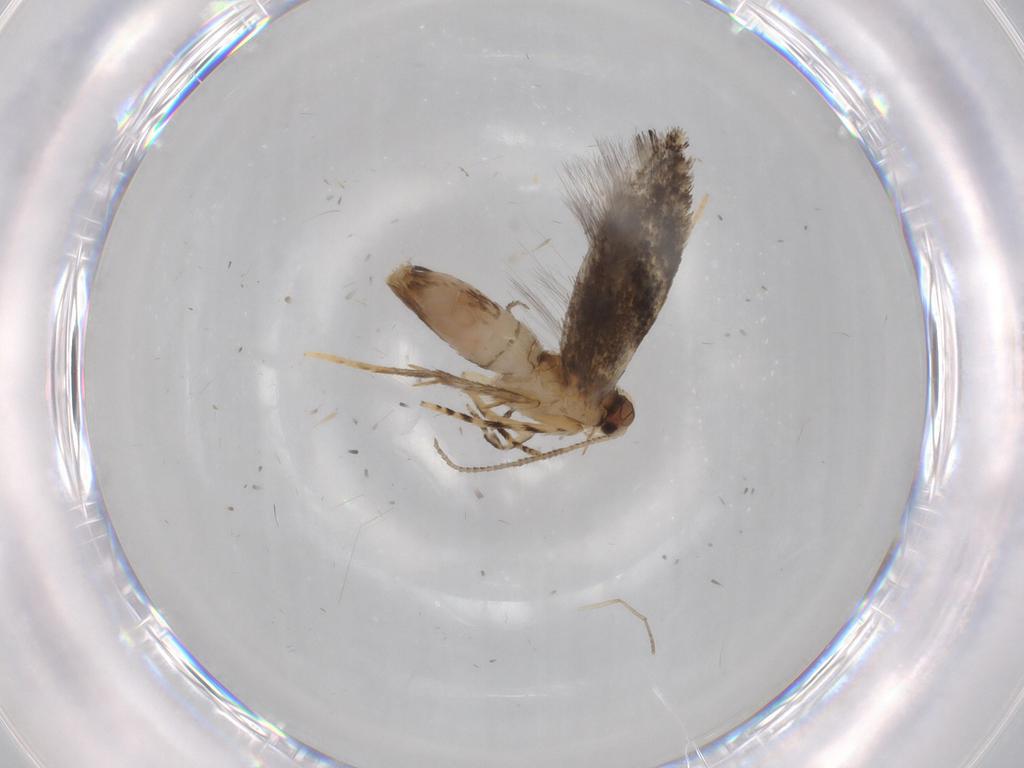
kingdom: Animalia
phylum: Arthropoda
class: Insecta
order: Lepidoptera
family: Tineidae
